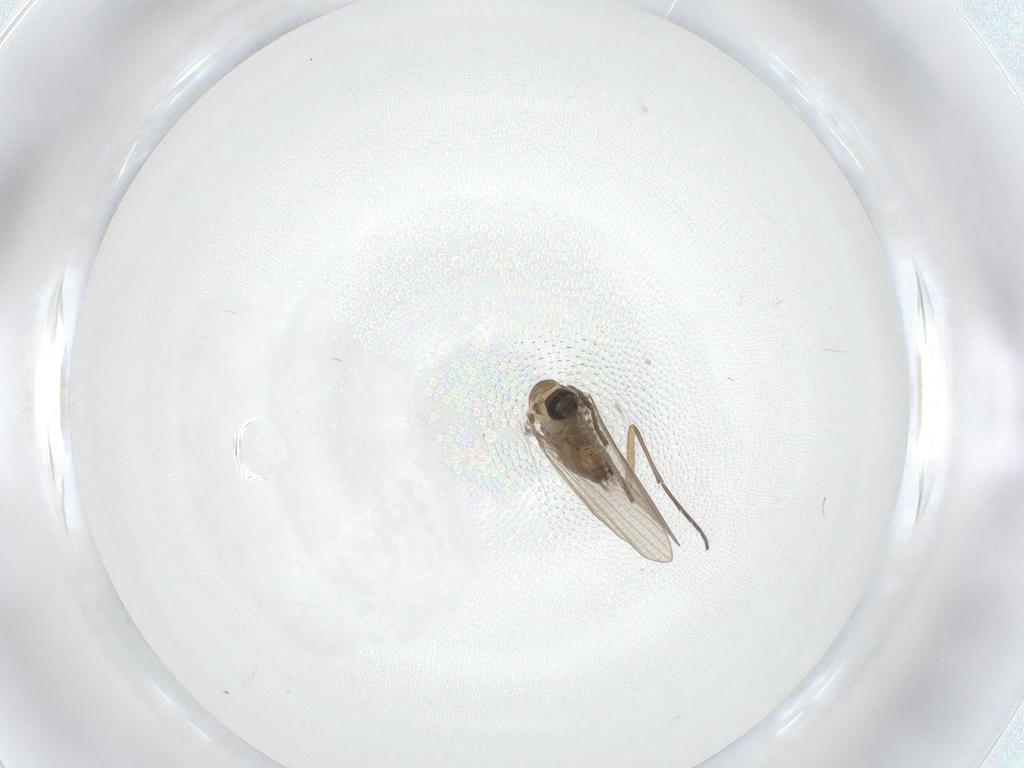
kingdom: Animalia
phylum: Arthropoda
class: Insecta
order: Diptera
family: Psychodidae
